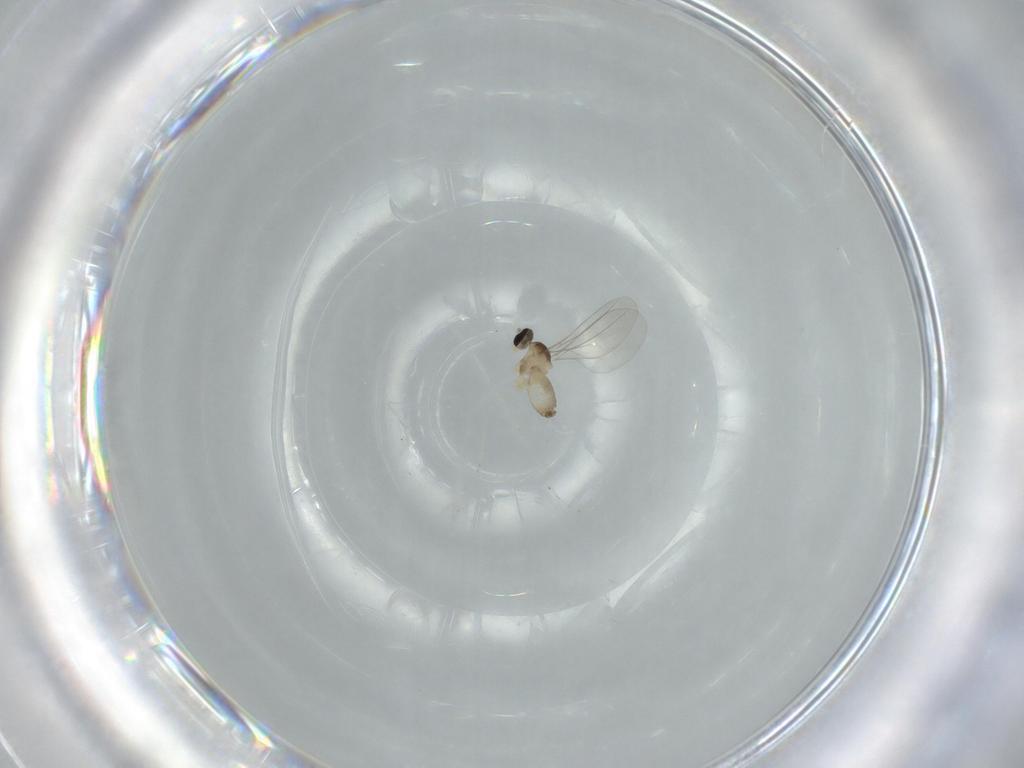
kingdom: Animalia
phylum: Arthropoda
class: Insecta
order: Diptera
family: Cecidomyiidae
